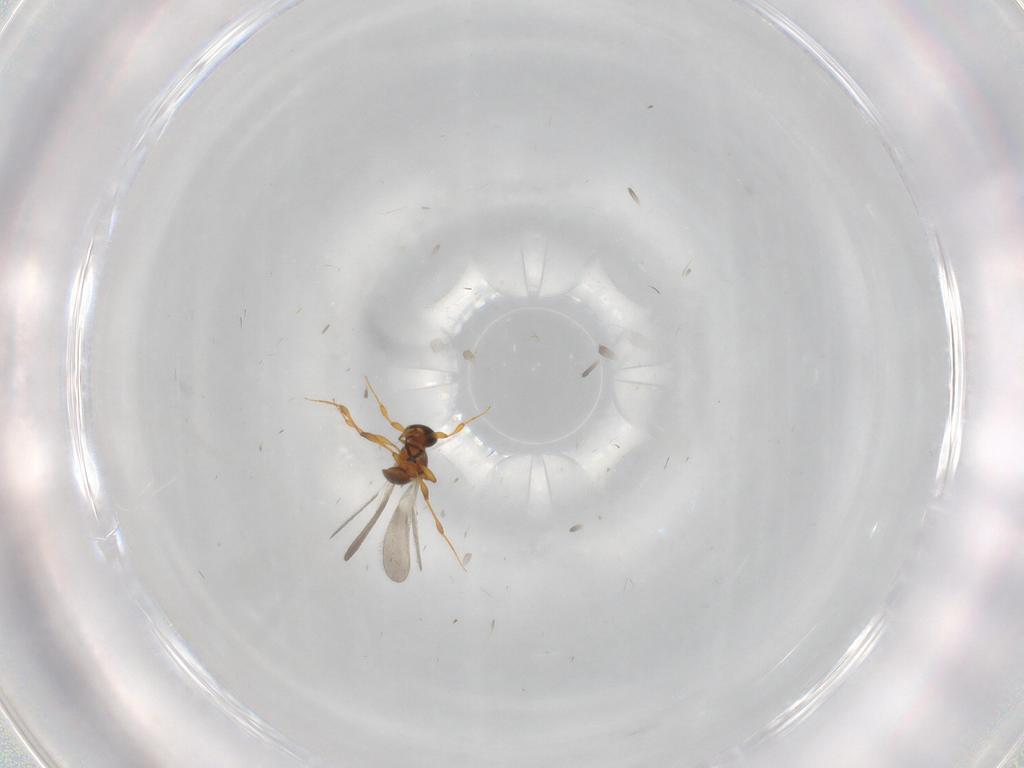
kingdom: Animalia
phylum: Arthropoda
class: Insecta
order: Hymenoptera
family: Platygastridae
